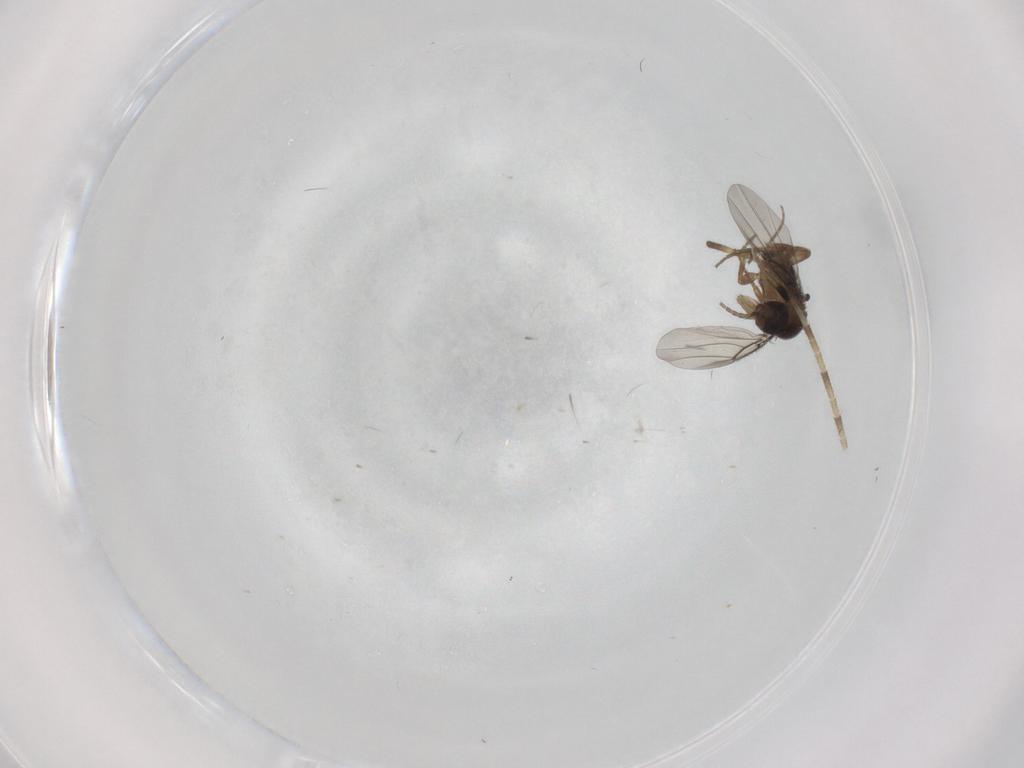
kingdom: Animalia
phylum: Arthropoda
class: Insecta
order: Diptera
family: Phoridae
